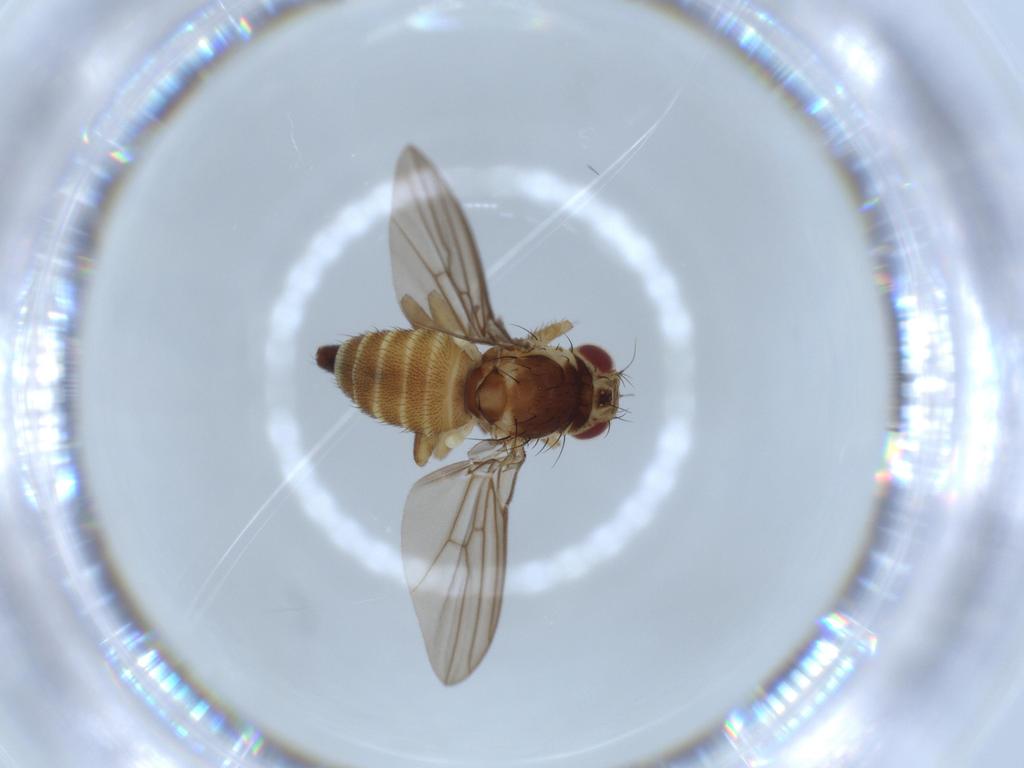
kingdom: Animalia
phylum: Arthropoda
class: Insecta
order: Diptera
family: Agromyzidae
